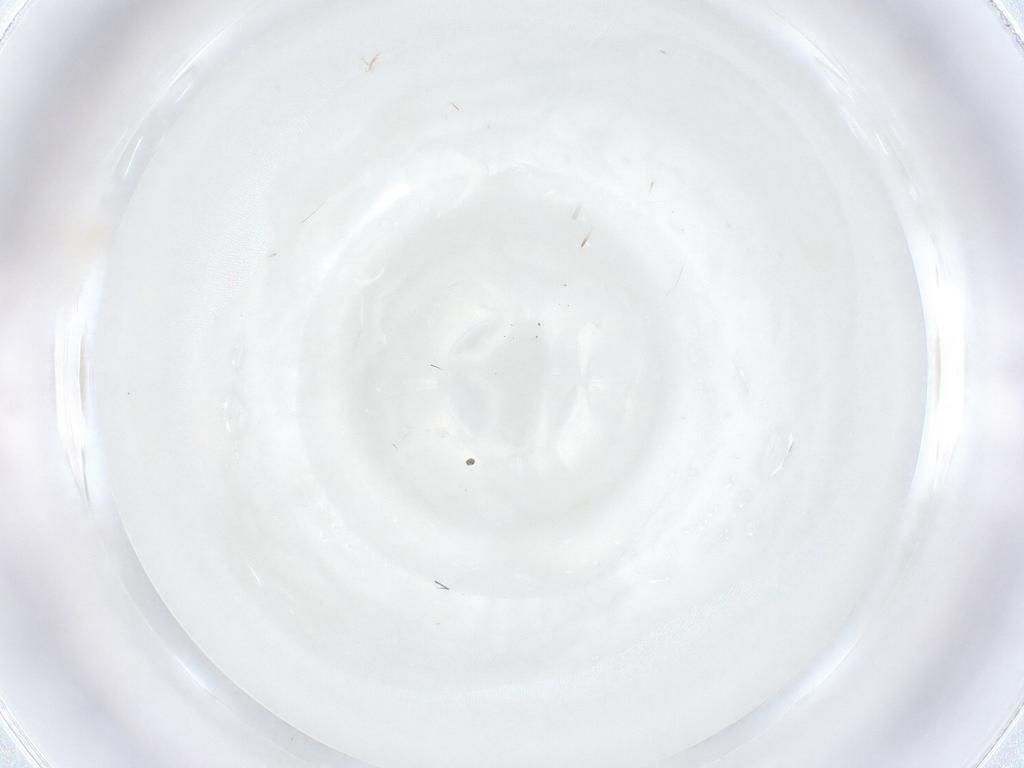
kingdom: Animalia
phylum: Arthropoda
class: Arachnida
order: Trombidiformes
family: Erythraeidae
